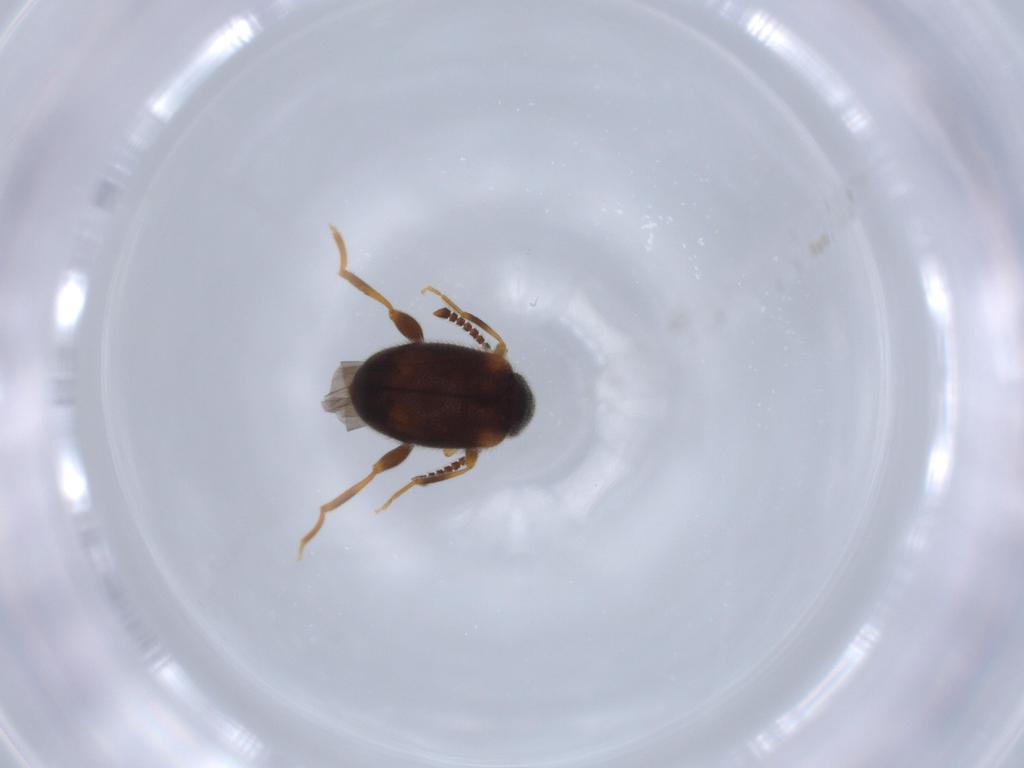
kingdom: Animalia
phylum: Arthropoda
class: Insecta
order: Coleoptera
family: Aderidae
